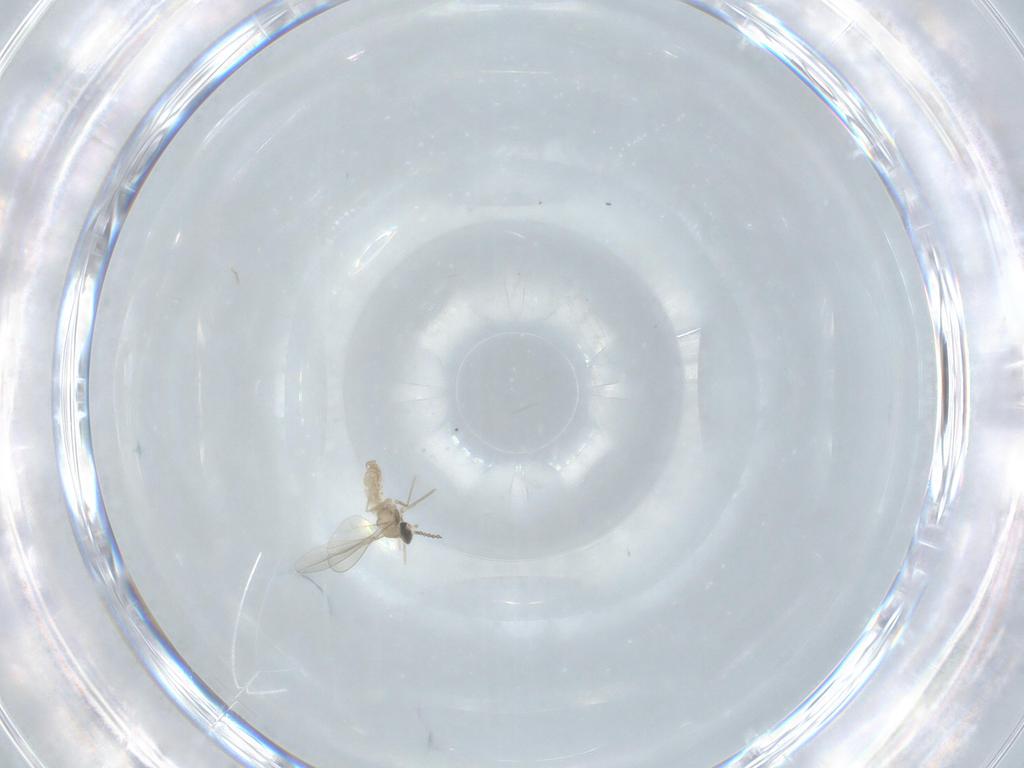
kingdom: Animalia
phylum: Arthropoda
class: Insecta
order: Diptera
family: Cecidomyiidae
